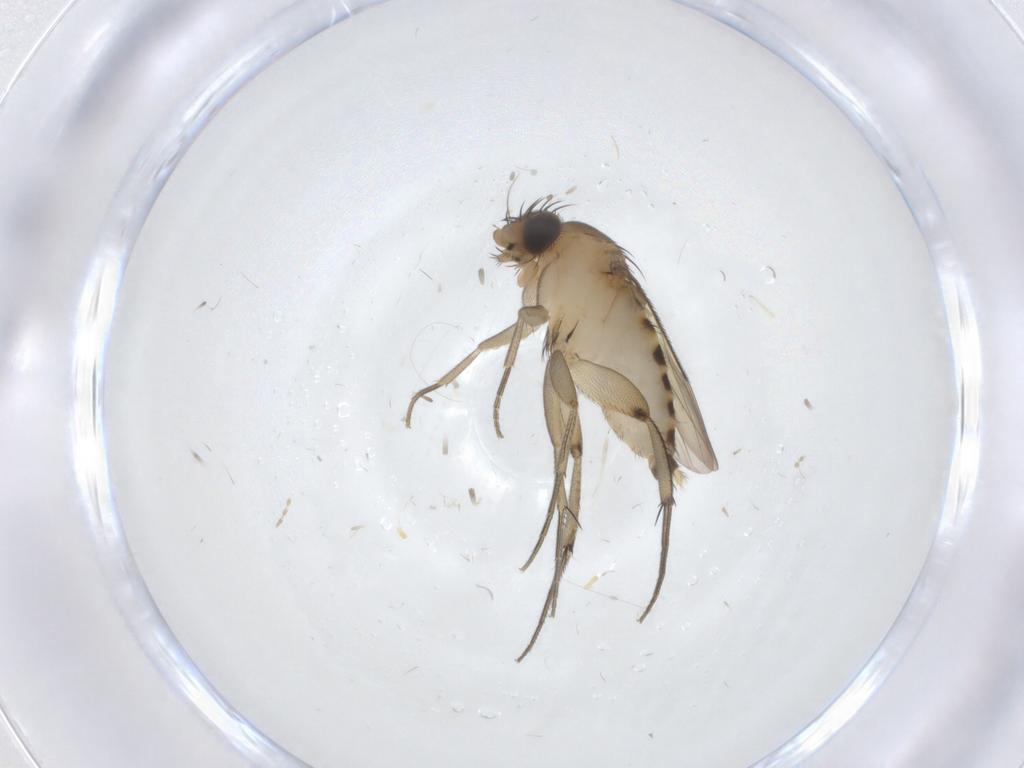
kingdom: Animalia
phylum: Arthropoda
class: Insecta
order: Diptera
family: Phoridae
